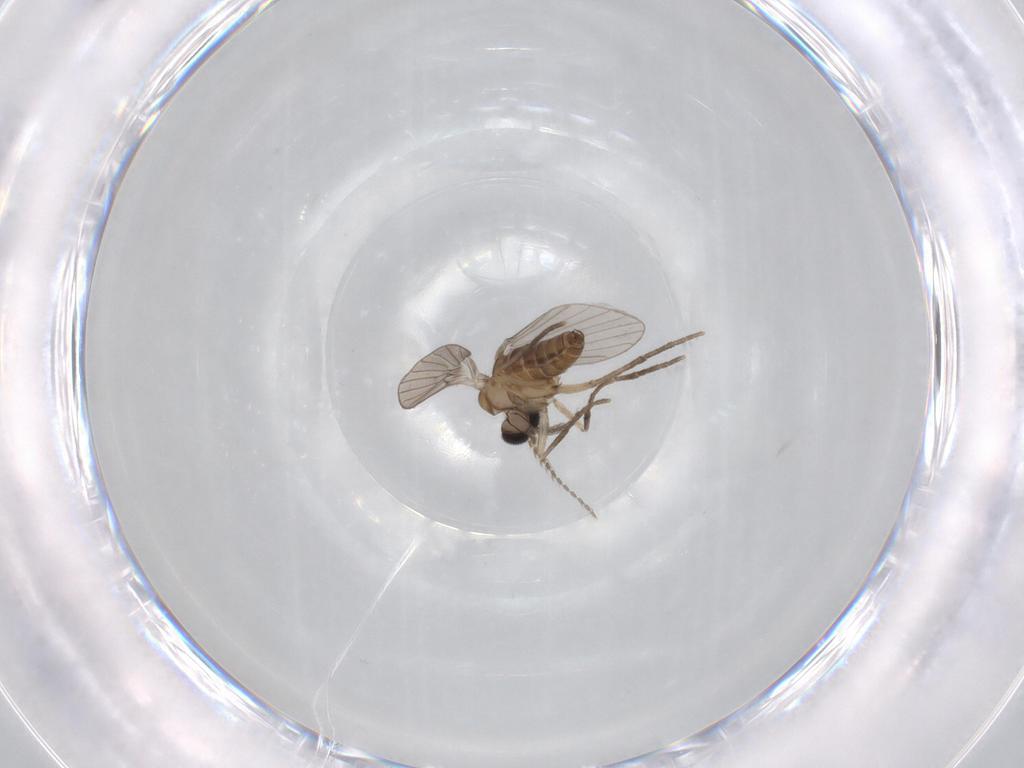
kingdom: Animalia
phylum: Arthropoda
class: Insecta
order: Diptera
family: Cecidomyiidae
